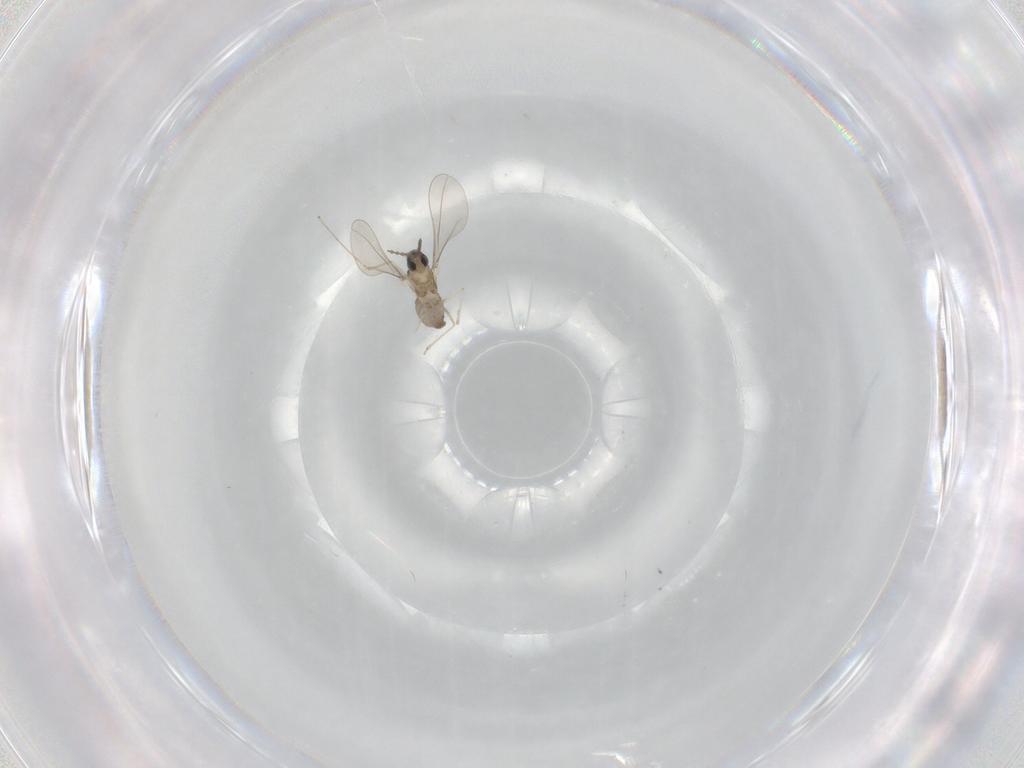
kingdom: Animalia
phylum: Arthropoda
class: Insecta
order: Diptera
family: Cecidomyiidae
